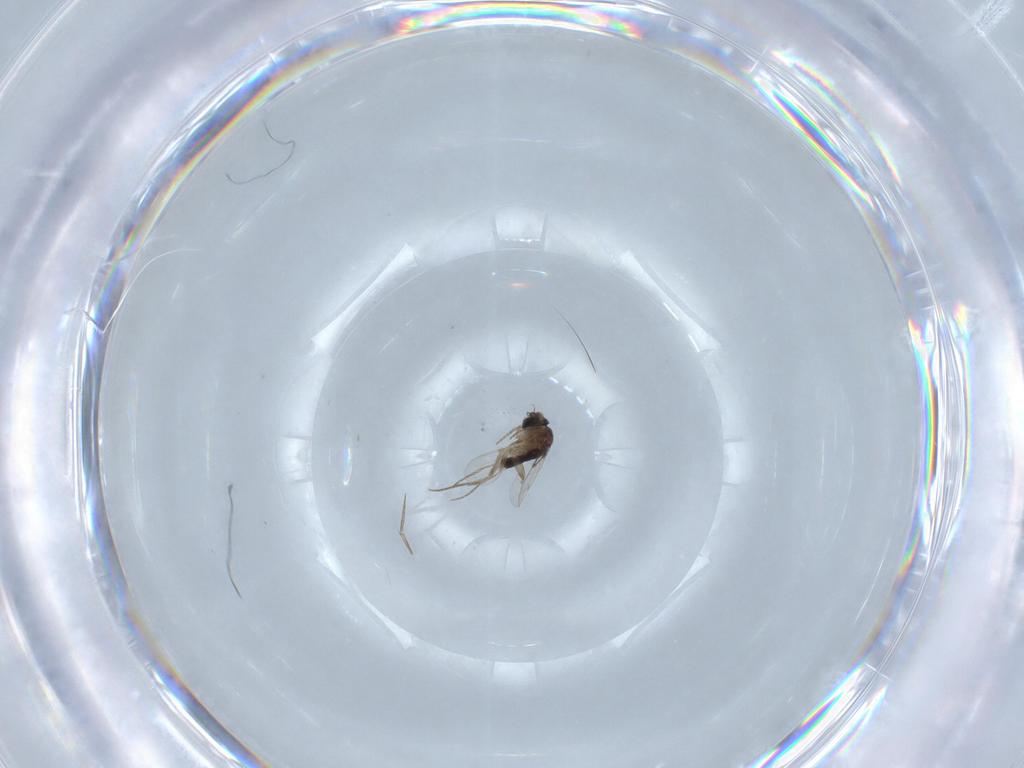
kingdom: Animalia
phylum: Arthropoda
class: Insecta
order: Diptera
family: Phoridae
